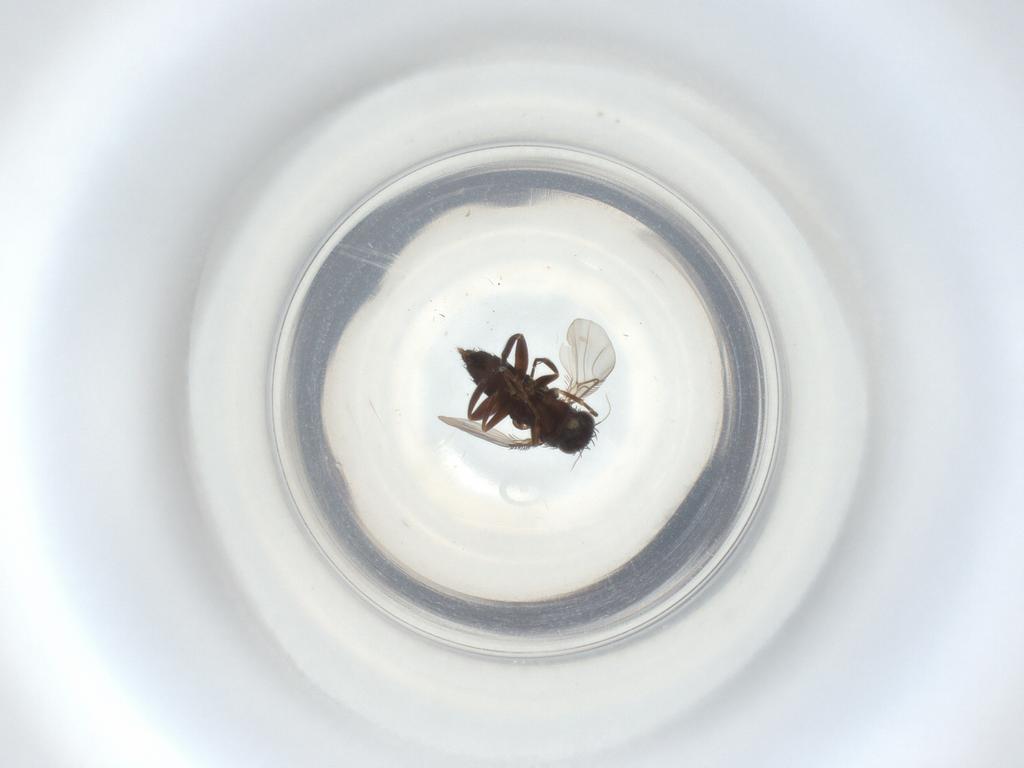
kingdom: Animalia
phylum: Arthropoda
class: Insecta
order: Diptera
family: Phoridae
